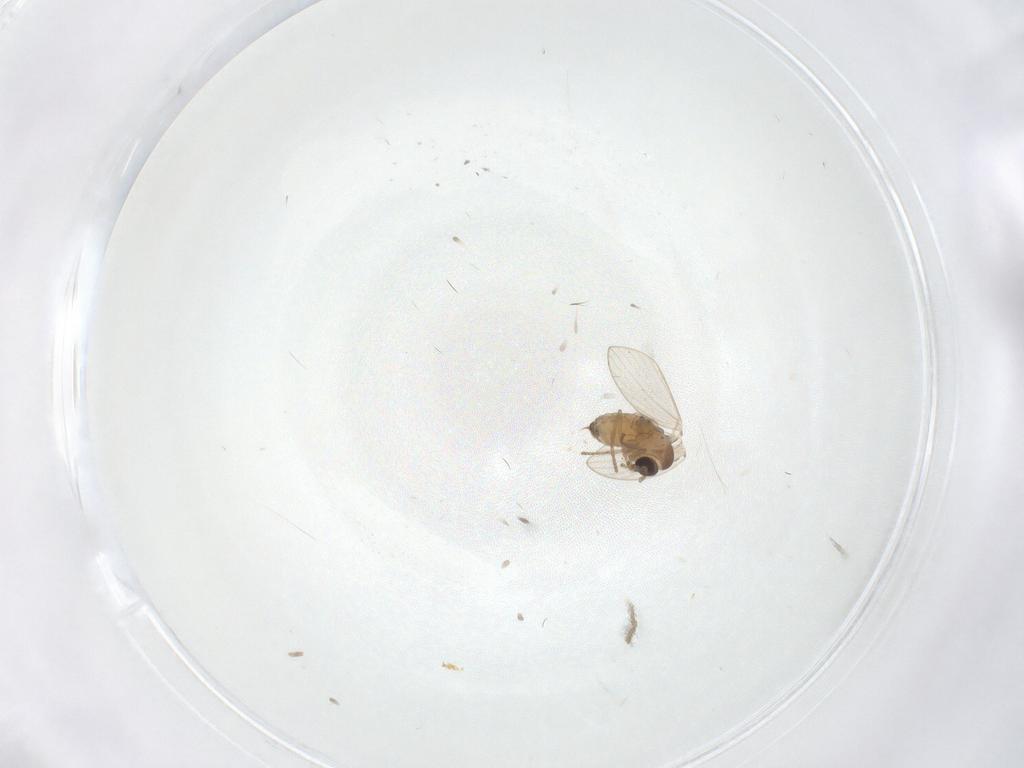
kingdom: Animalia
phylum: Arthropoda
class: Insecta
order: Diptera
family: Psychodidae
